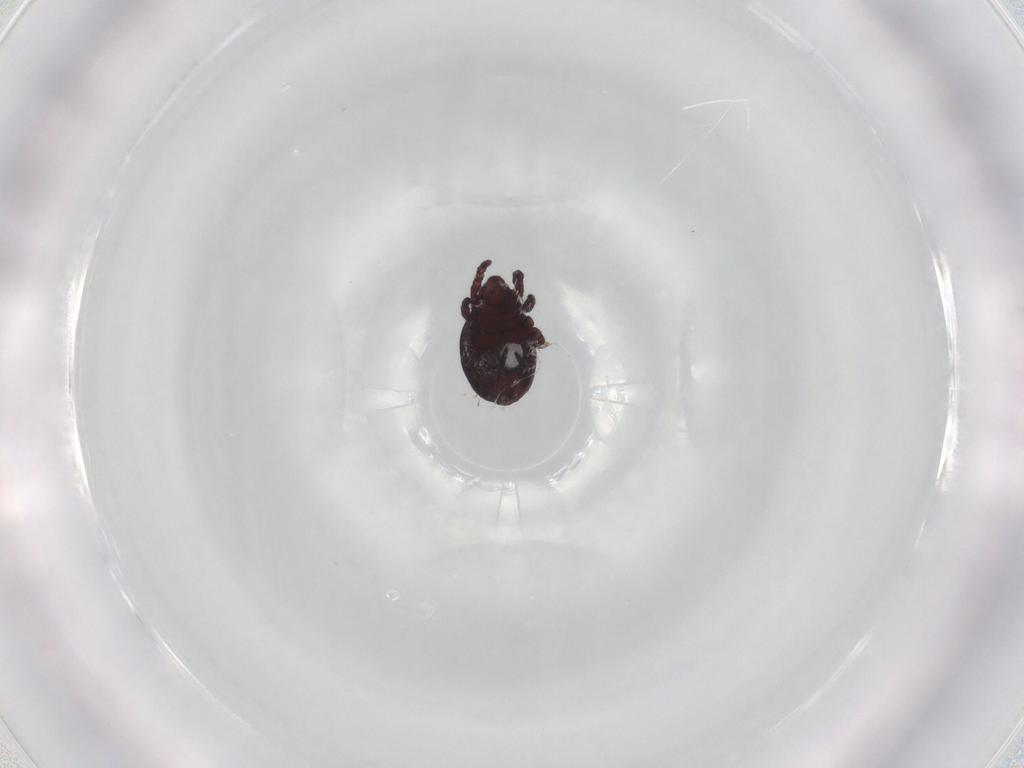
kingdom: Animalia
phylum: Arthropoda
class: Arachnida
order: Sarcoptiformes
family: Hermanniidae
